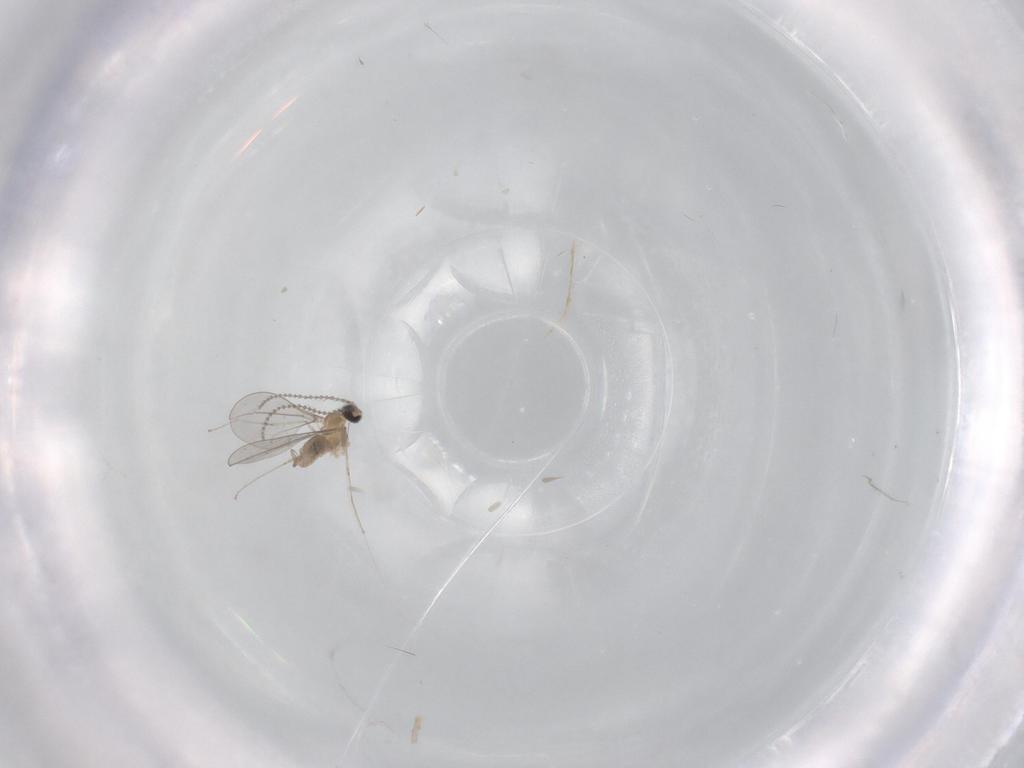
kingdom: Animalia
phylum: Arthropoda
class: Insecta
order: Diptera
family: Cecidomyiidae
